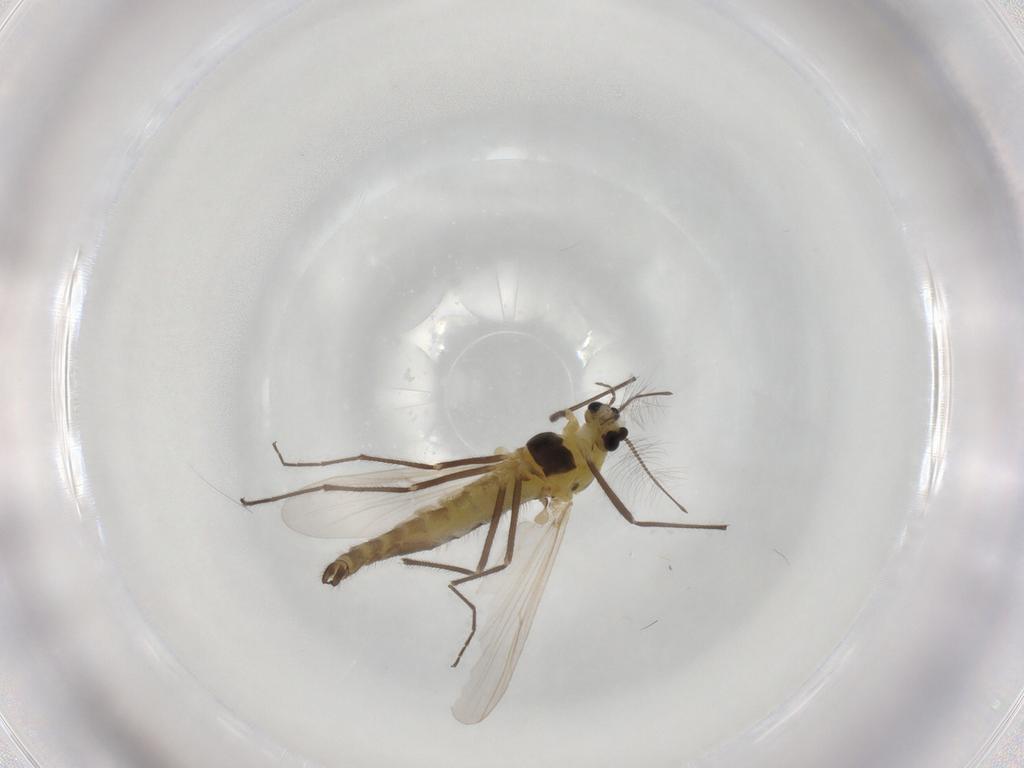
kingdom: Animalia
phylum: Arthropoda
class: Insecta
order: Diptera
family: Chironomidae
